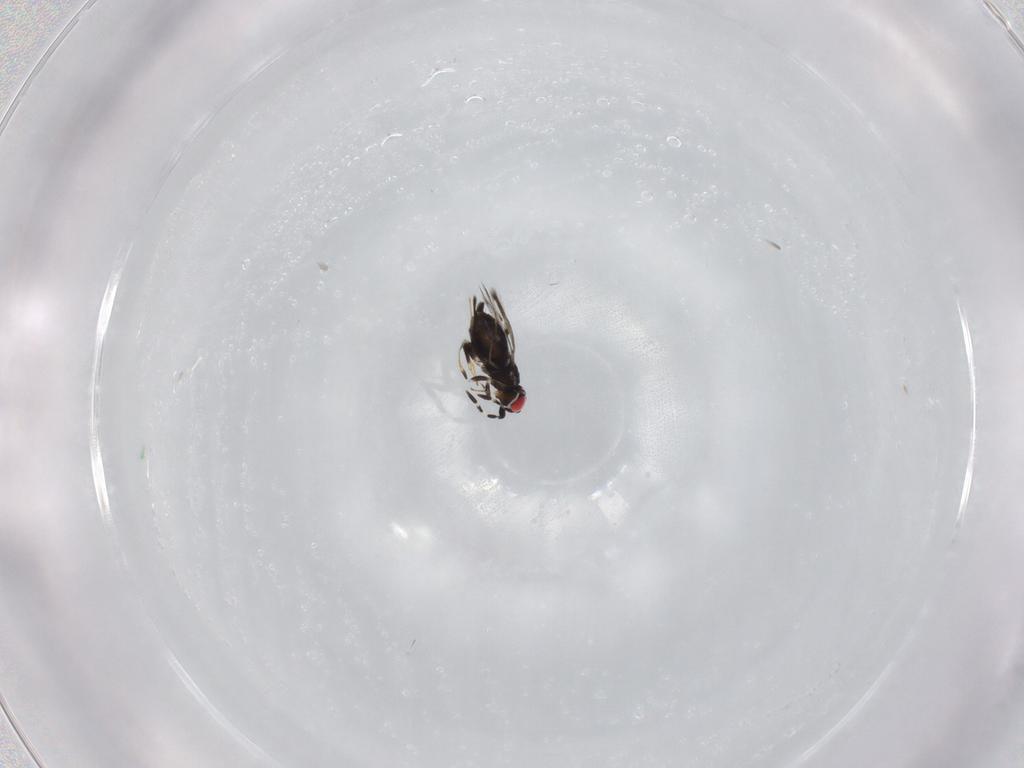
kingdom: Animalia
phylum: Arthropoda
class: Insecta
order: Hymenoptera
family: Azotidae
